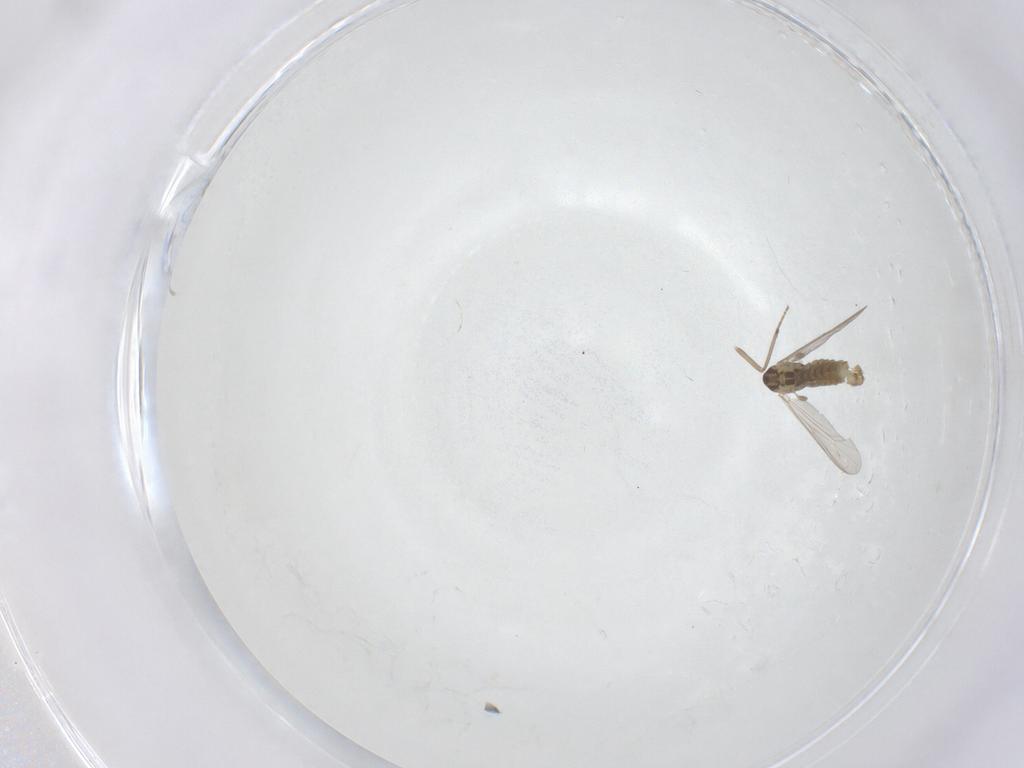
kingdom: Animalia
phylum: Arthropoda
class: Insecta
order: Diptera
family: Chironomidae
